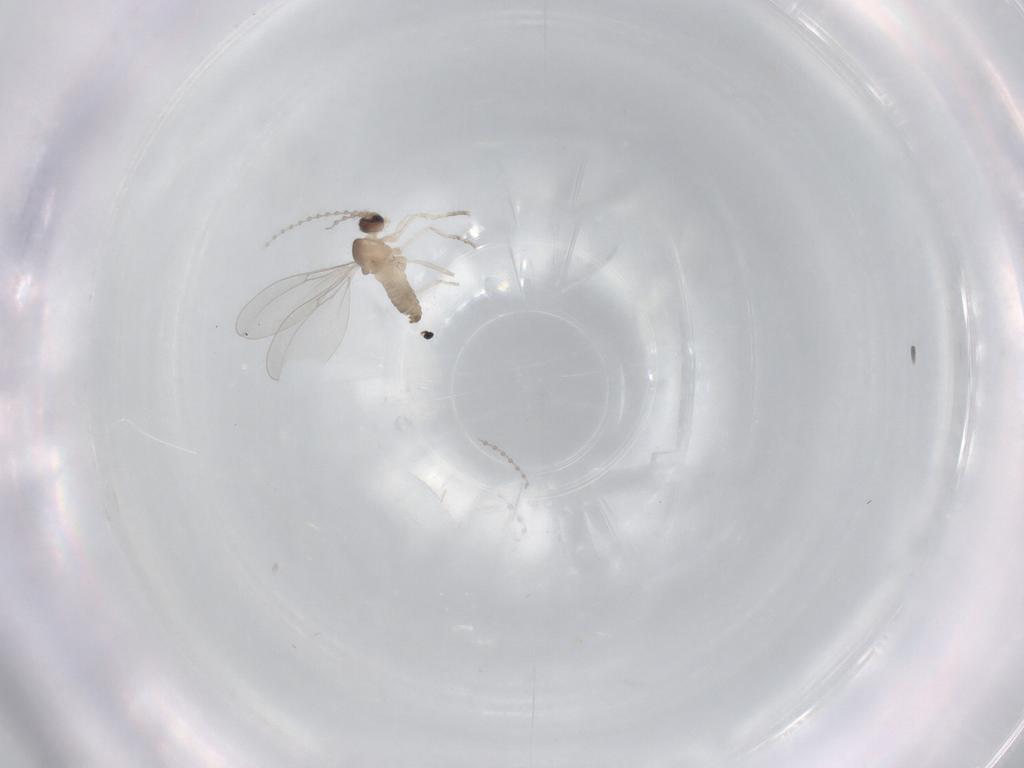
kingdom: Animalia
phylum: Arthropoda
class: Insecta
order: Diptera
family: Cecidomyiidae
